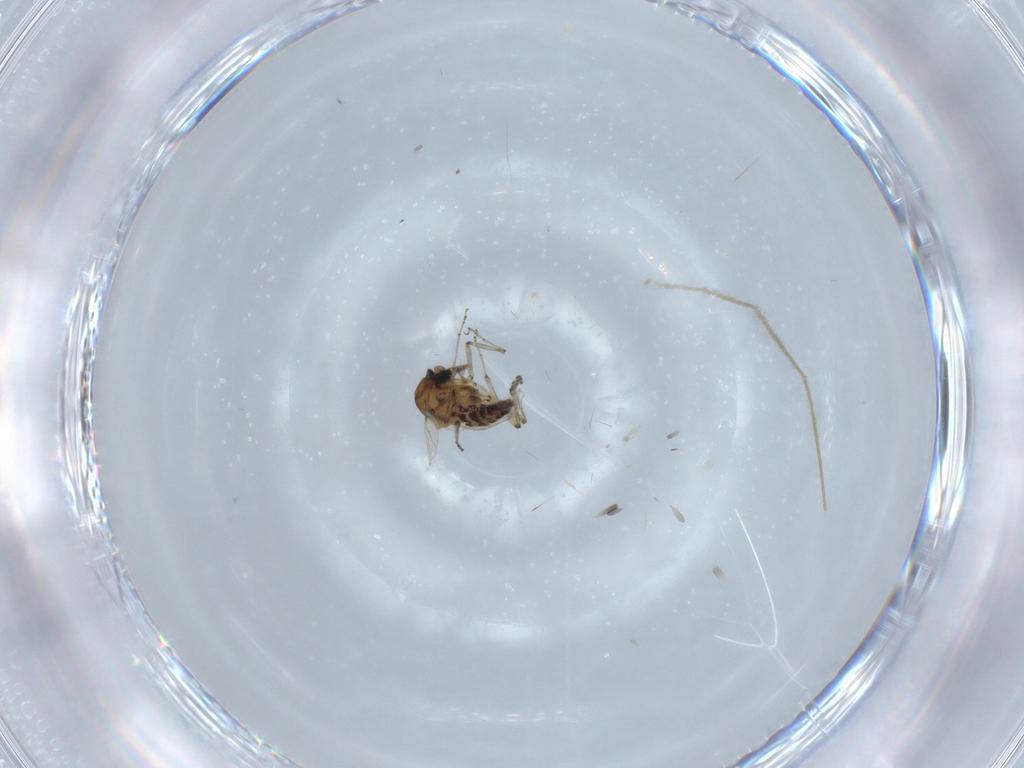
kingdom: Animalia
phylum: Arthropoda
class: Insecta
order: Diptera
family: Ceratopogonidae
